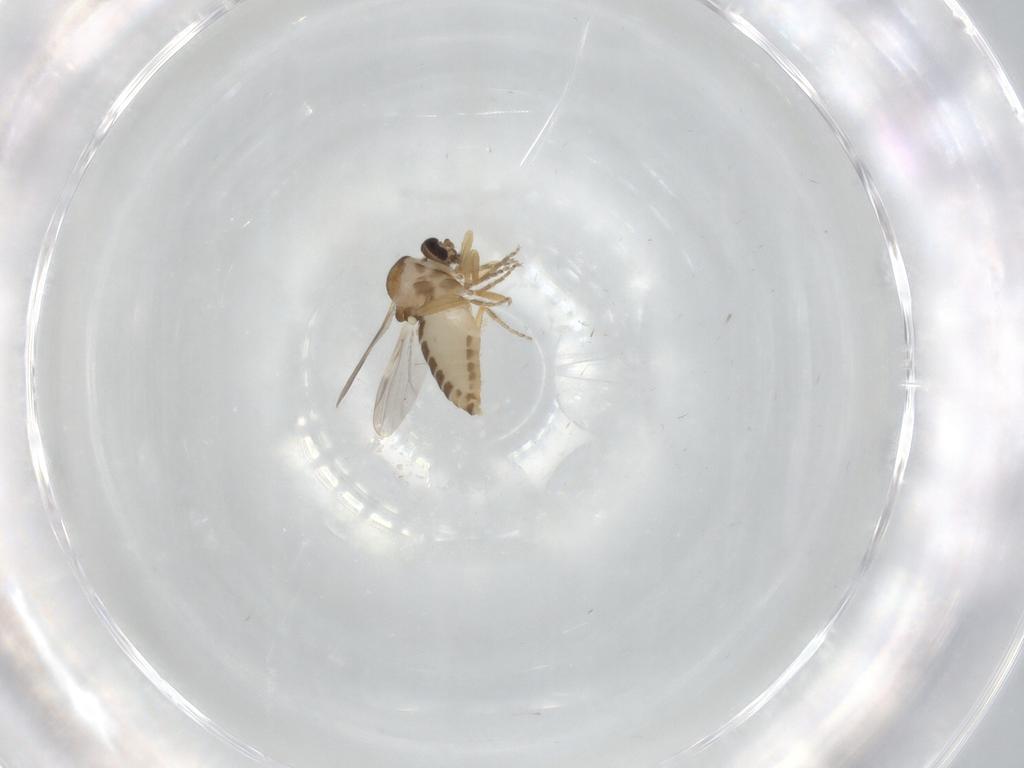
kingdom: Animalia
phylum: Arthropoda
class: Insecta
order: Diptera
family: Ceratopogonidae
